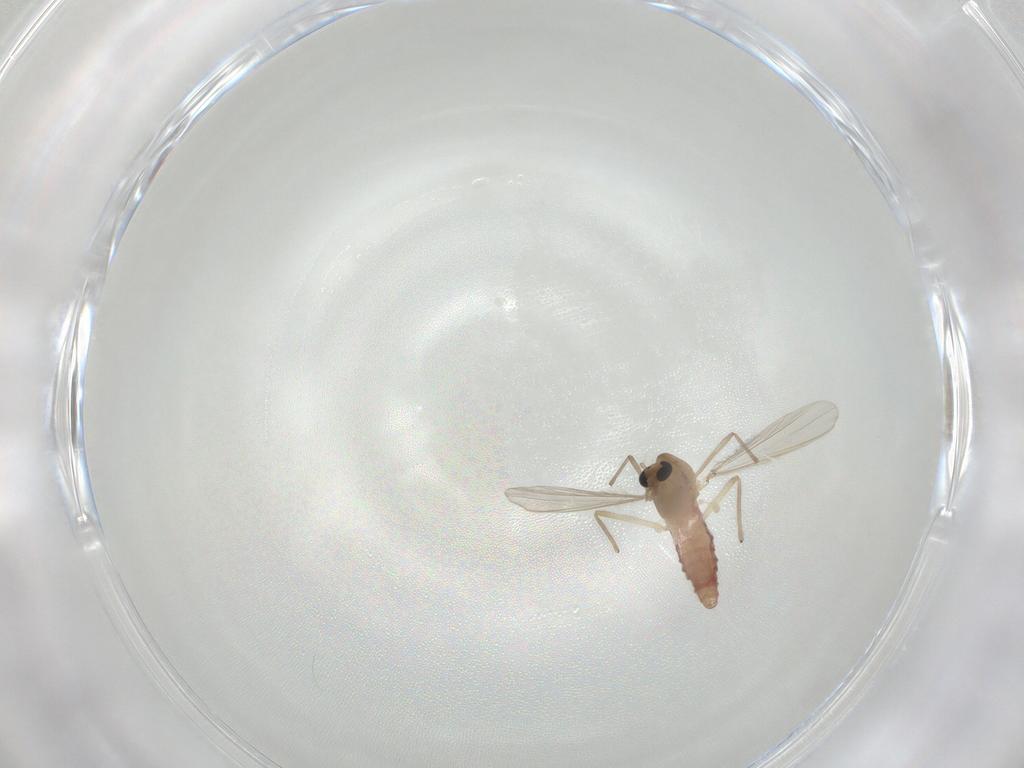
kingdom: Animalia
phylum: Arthropoda
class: Insecta
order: Diptera
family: Chironomidae
